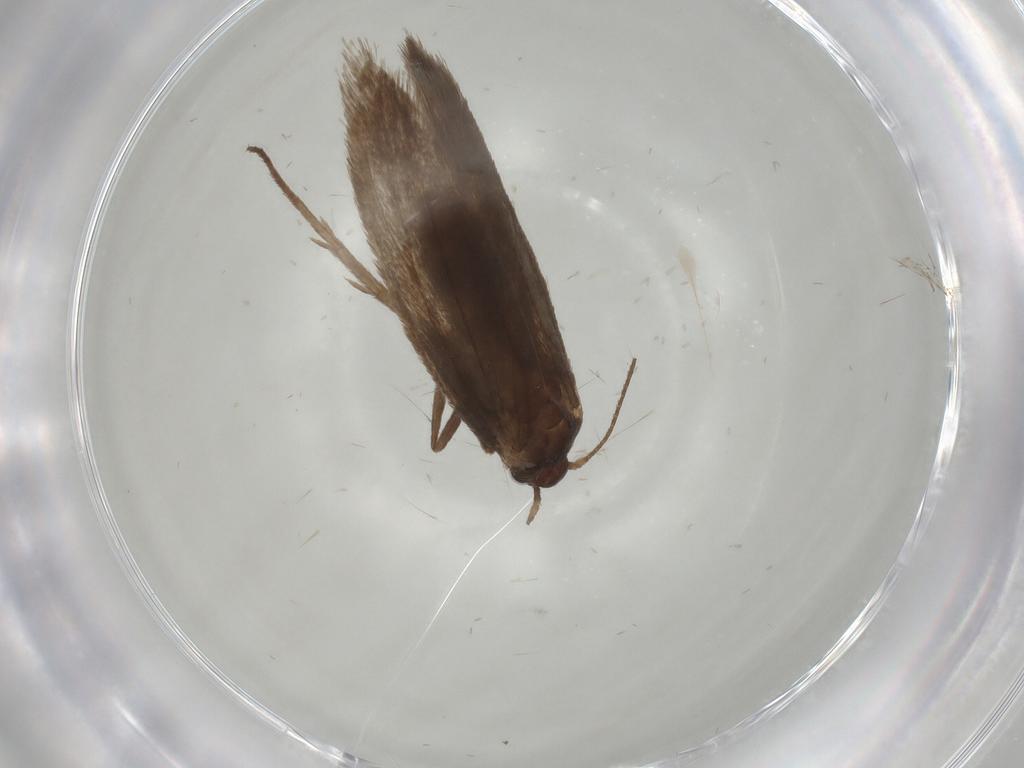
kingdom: Animalia
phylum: Arthropoda
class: Insecta
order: Lepidoptera
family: Limacodidae
